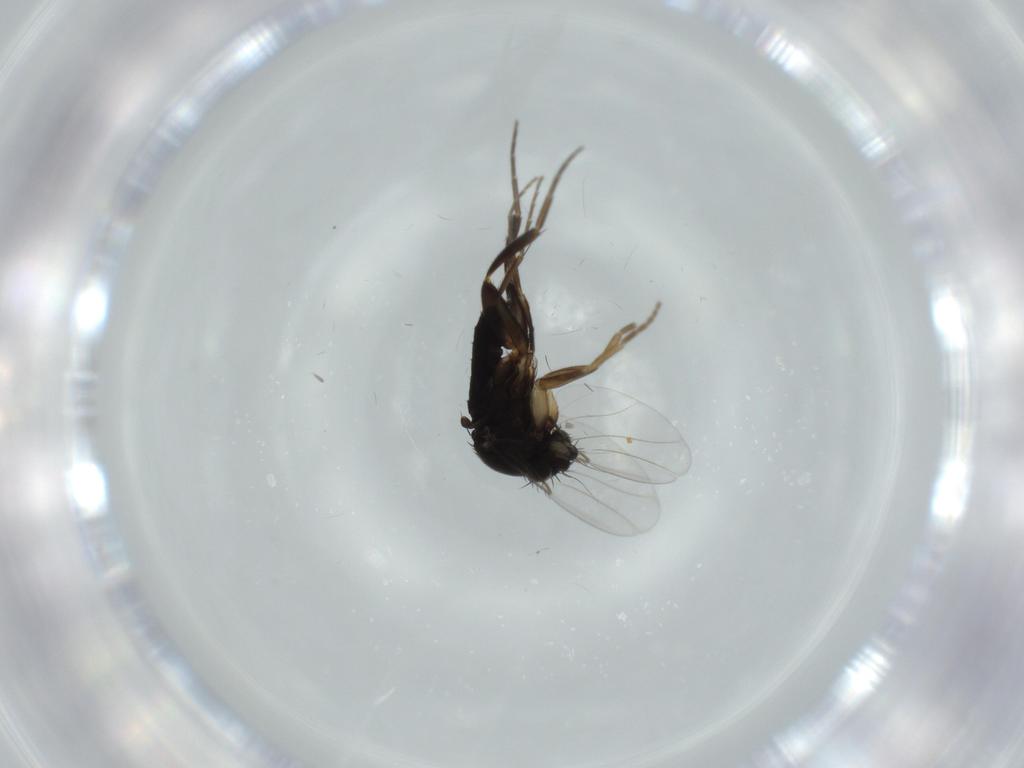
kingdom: Animalia
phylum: Arthropoda
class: Insecta
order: Diptera
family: Phoridae
